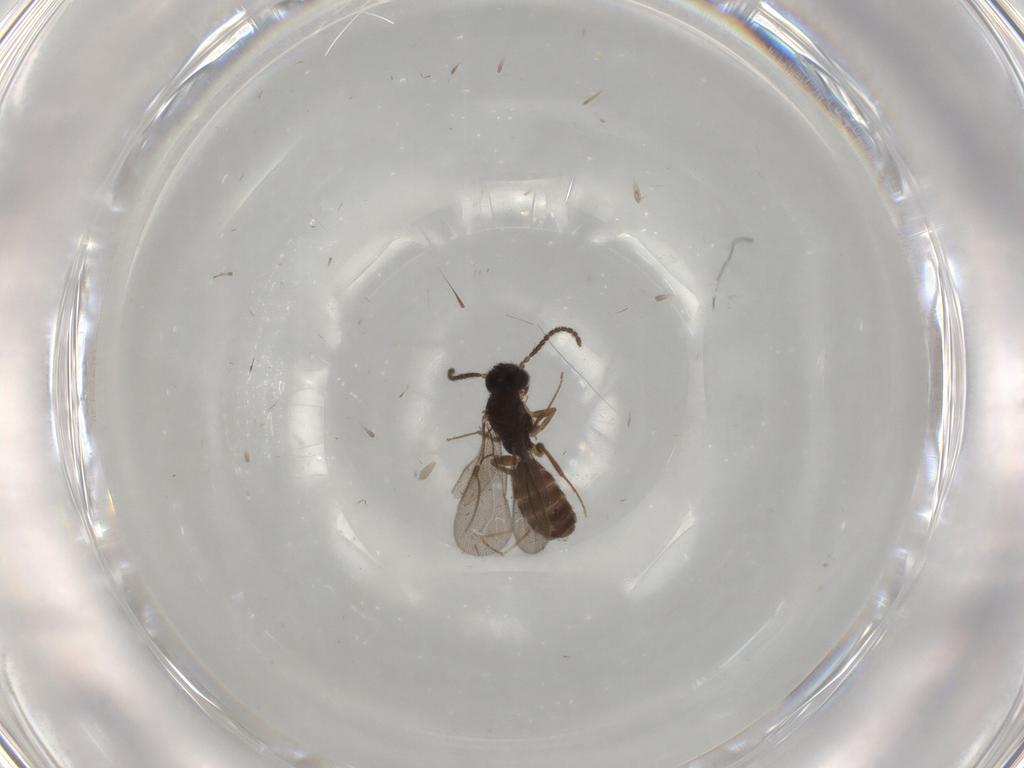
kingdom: Animalia
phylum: Arthropoda
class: Insecta
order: Hymenoptera
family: Bethylidae
